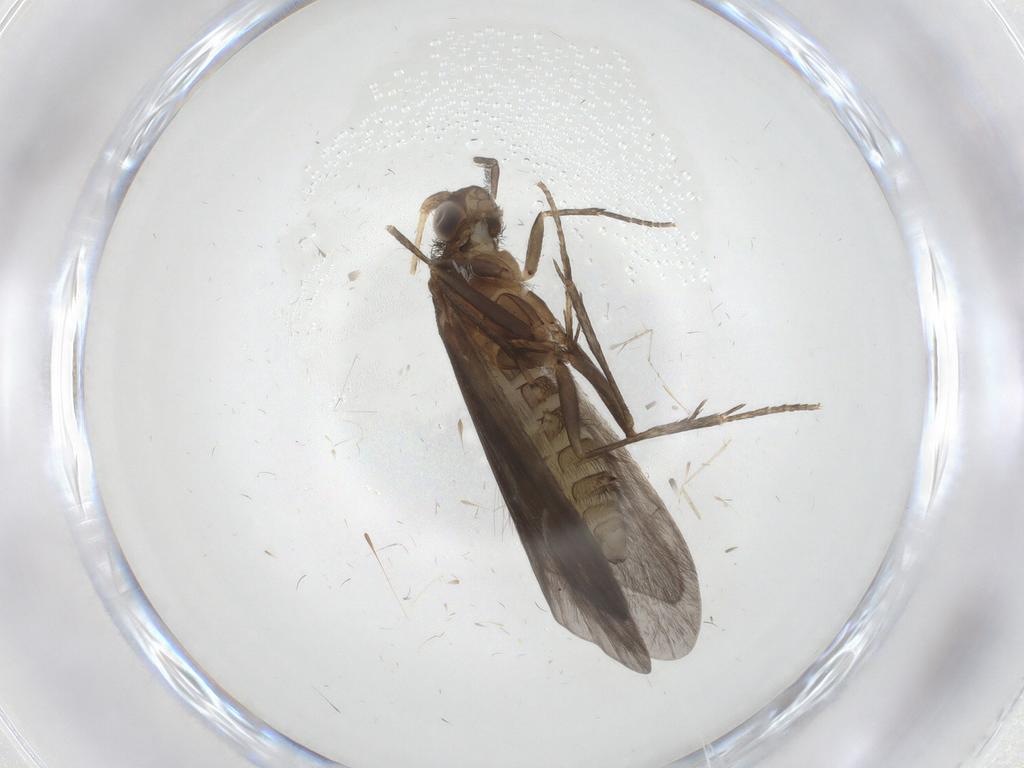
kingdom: Animalia
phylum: Arthropoda
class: Insecta
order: Trichoptera
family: Helicopsychidae
